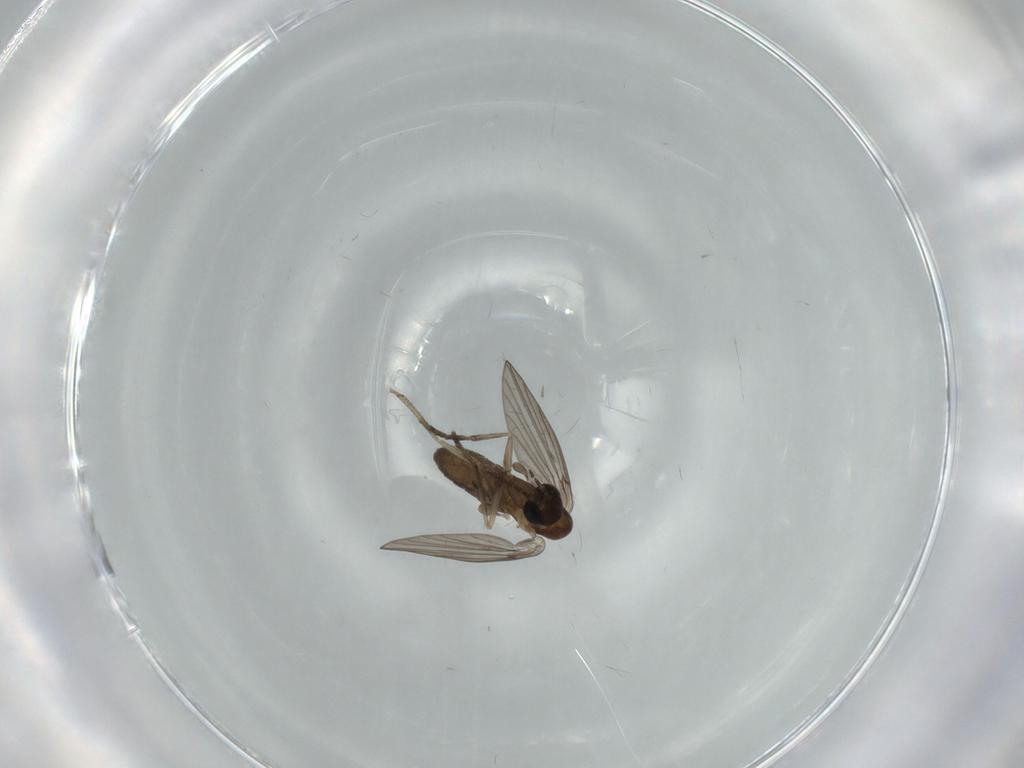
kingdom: Animalia
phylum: Arthropoda
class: Insecta
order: Diptera
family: Psychodidae
